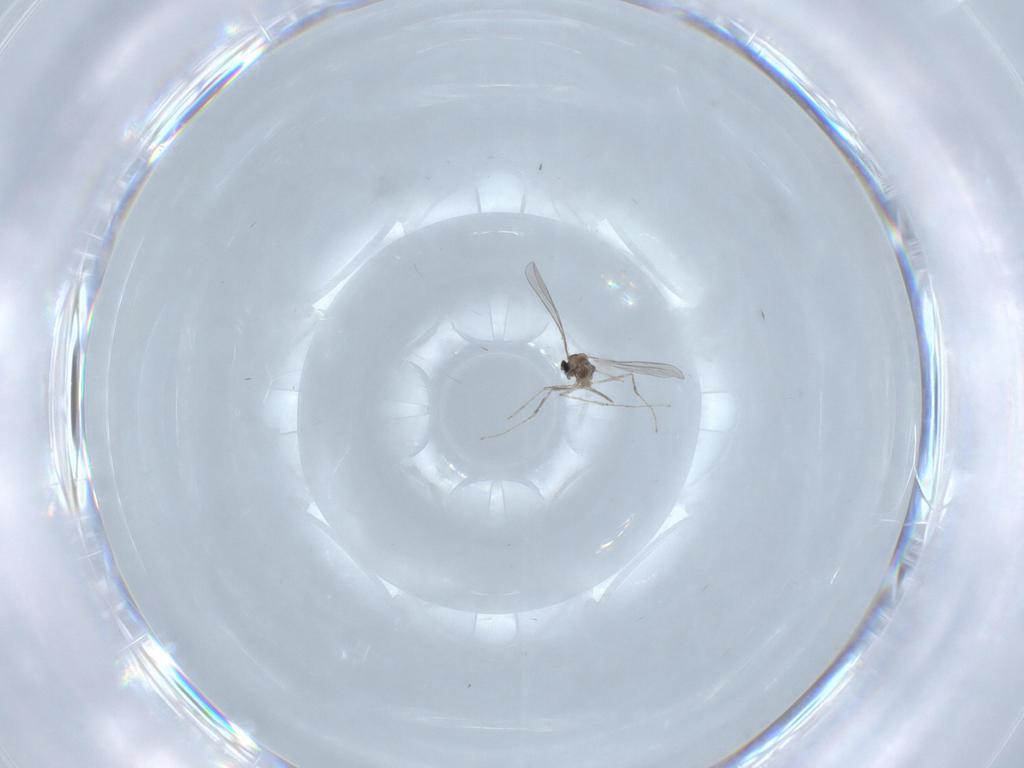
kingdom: Animalia
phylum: Arthropoda
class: Insecta
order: Diptera
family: Keroplatidae
